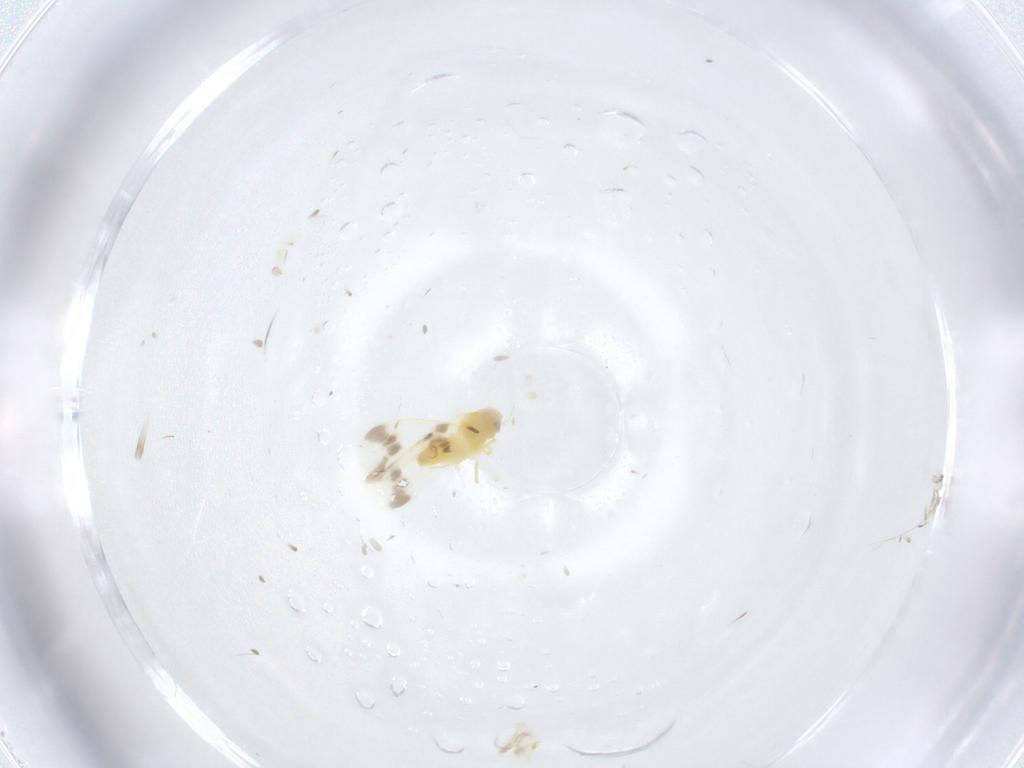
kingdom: Animalia
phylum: Arthropoda
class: Insecta
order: Hemiptera
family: Aleyrodidae
